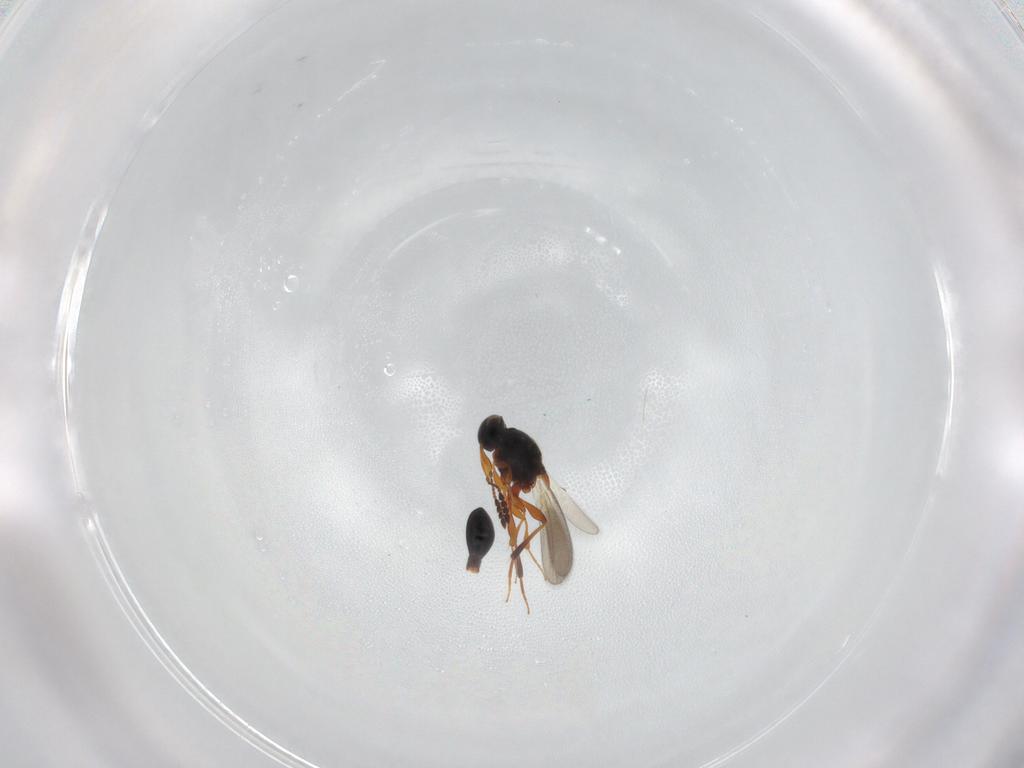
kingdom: Animalia
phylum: Arthropoda
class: Insecta
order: Hymenoptera
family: Platygastridae
